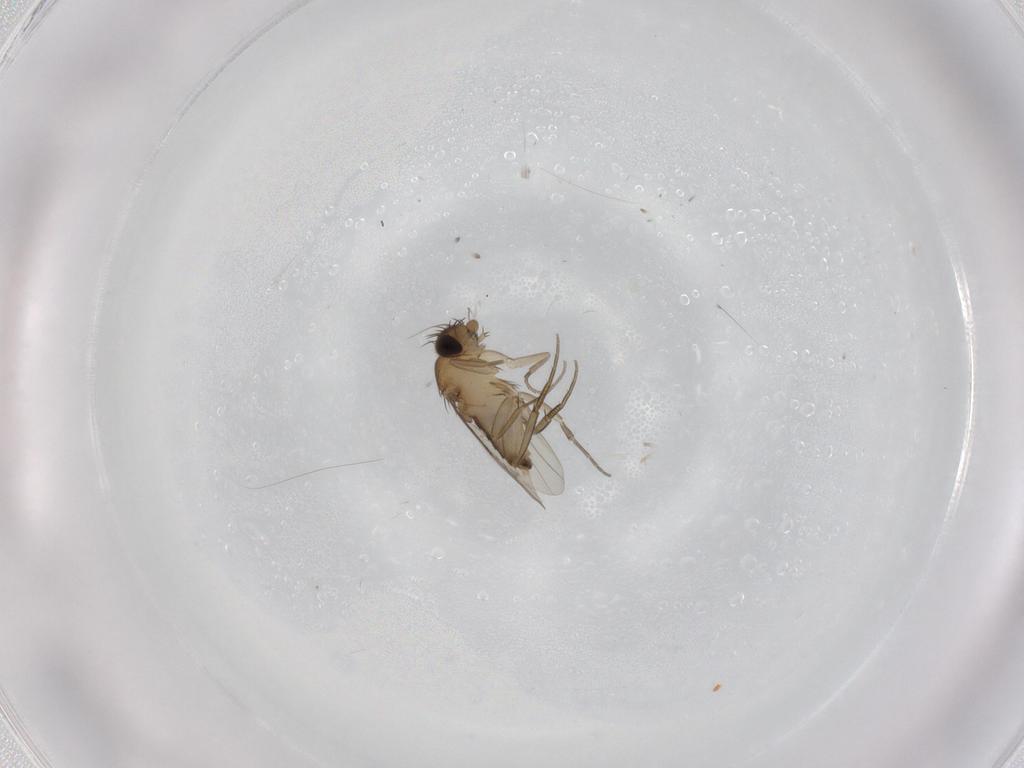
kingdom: Animalia
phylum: Arthropoda
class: Insecta
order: Diptera
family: Phoridae
